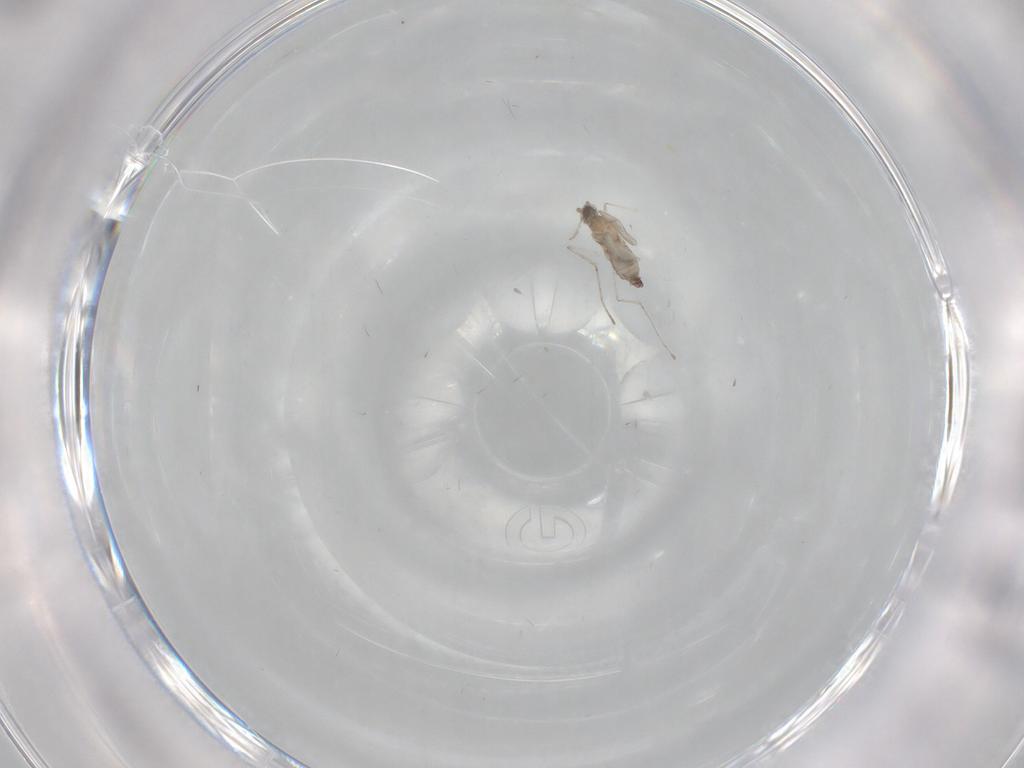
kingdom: Animalia
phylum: Arthropoda
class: Insecta
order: Diptera
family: Cecidomyiidae
